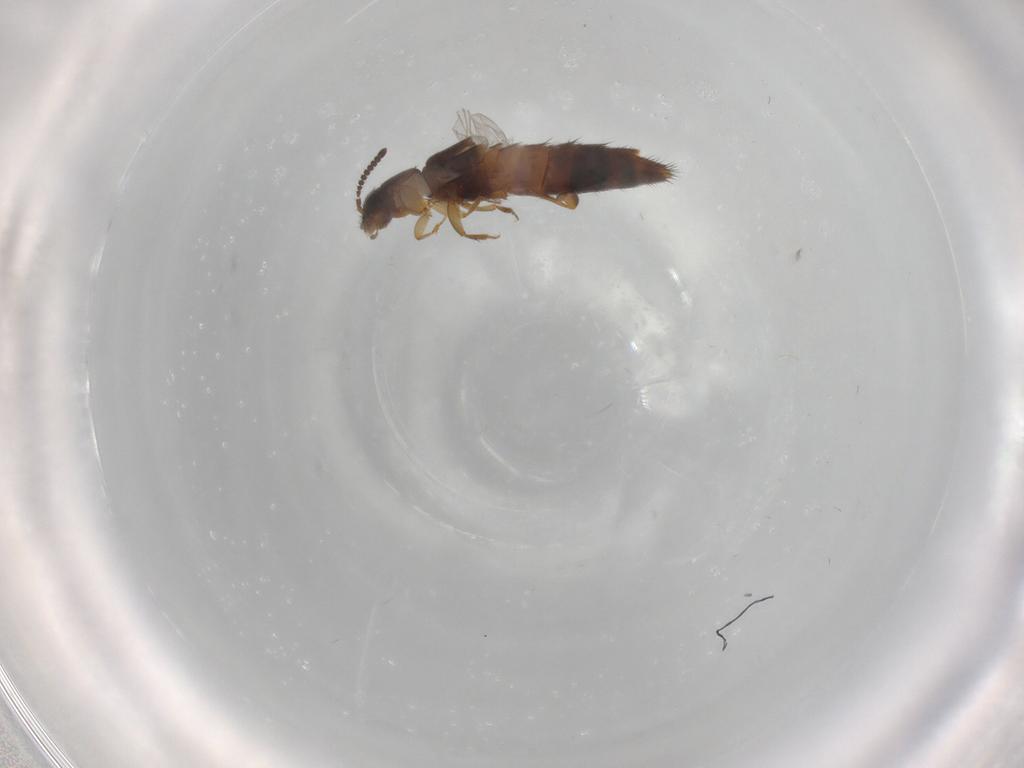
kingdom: Animalia
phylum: Arthropoda
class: Insecta
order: Coleoptera
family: Staphylinidae
